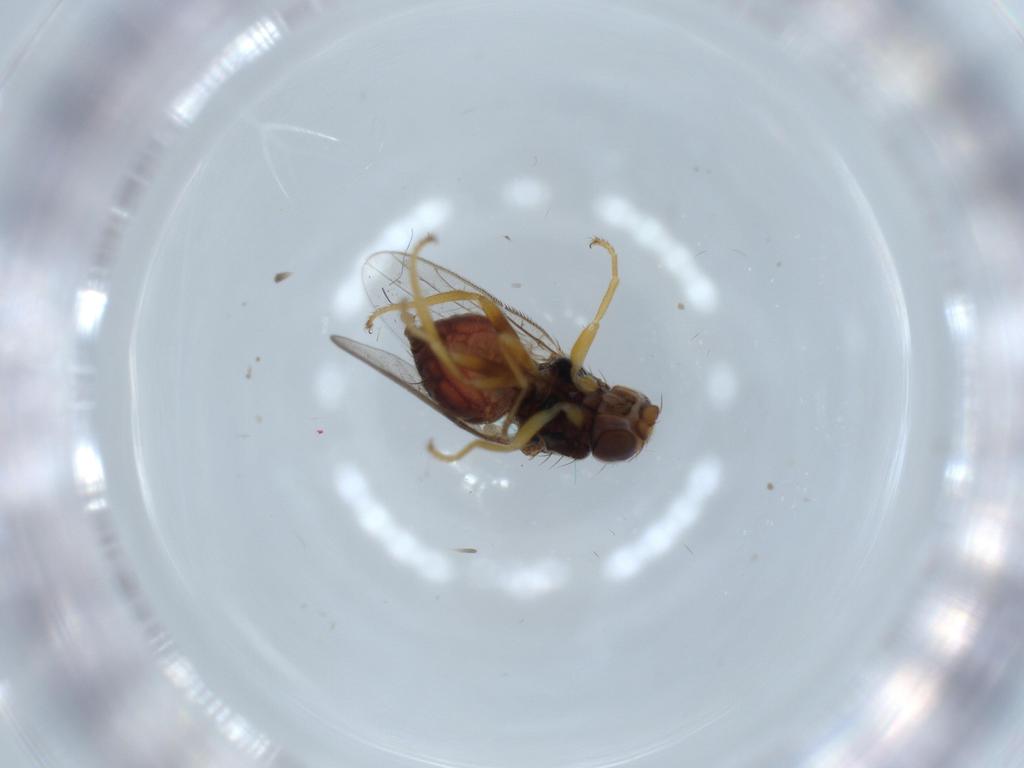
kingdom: Animalia
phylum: Arthropoda
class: Insecta
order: Diptera
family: Chloropidae
